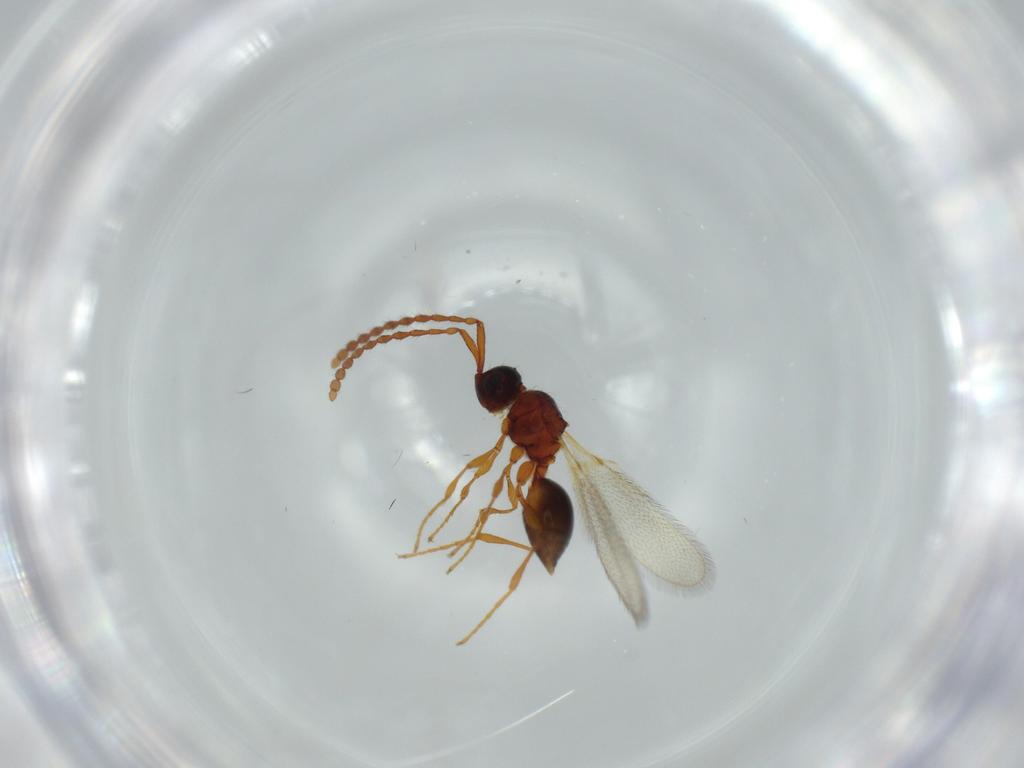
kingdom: Animalia
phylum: Arthropoda
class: Insecta
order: Hymenoptera
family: Diapriidae
